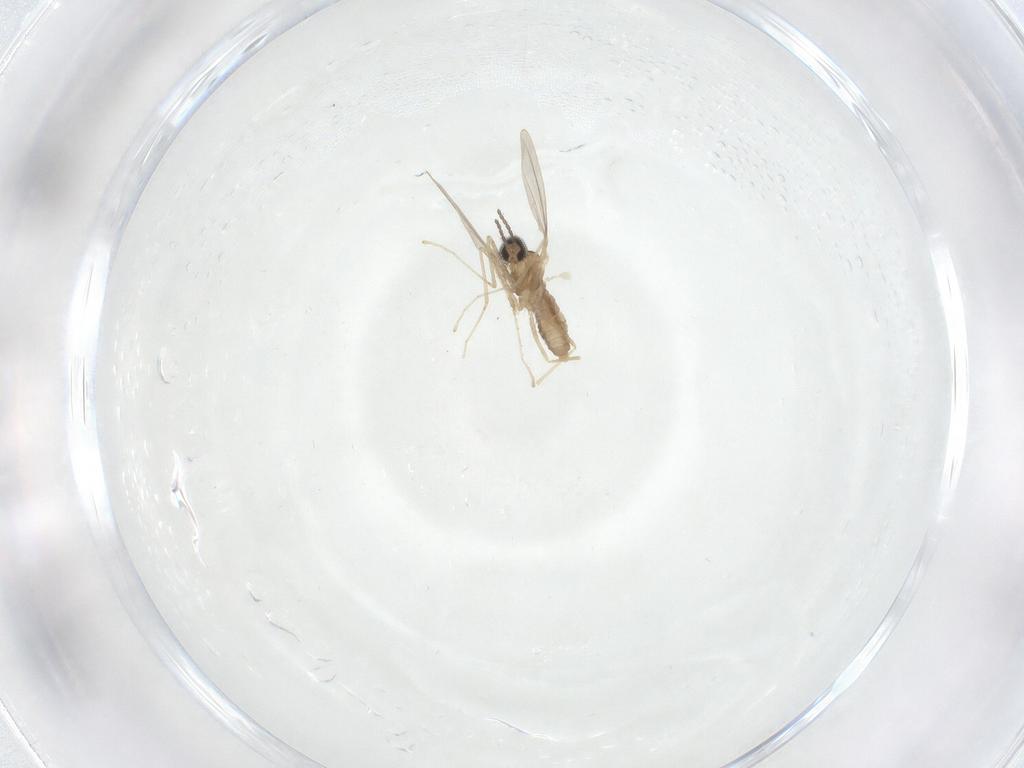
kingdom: Animalia
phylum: Arthropoda
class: Insecta
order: Diptera
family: Cecidomyiidae
